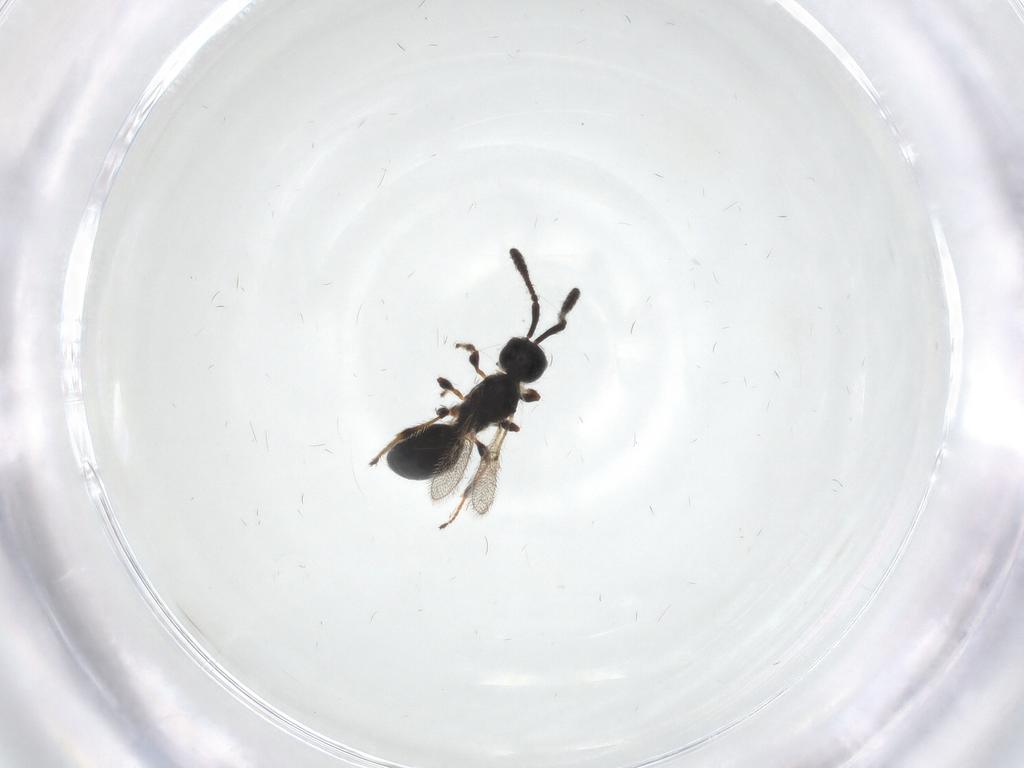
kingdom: Animalia
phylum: Arthropoda
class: Insecta
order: Hymenoptera
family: Diapriidae
